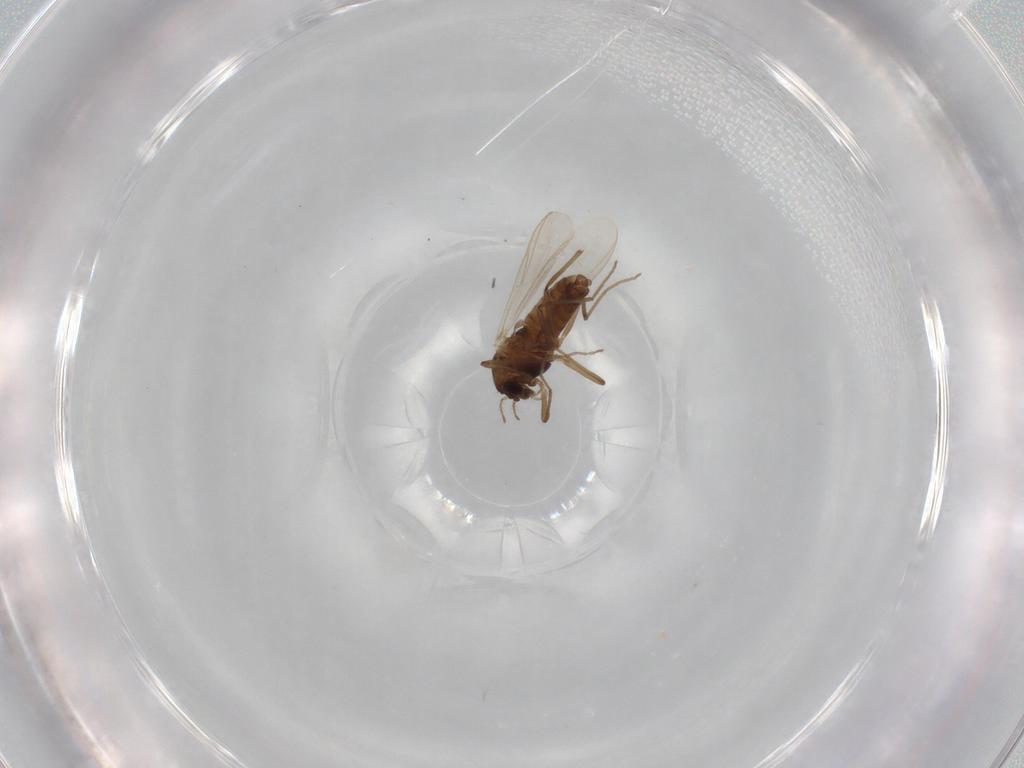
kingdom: Animalia
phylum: Arthropoda
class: Insecta
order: Diptera
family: Chironomidae
